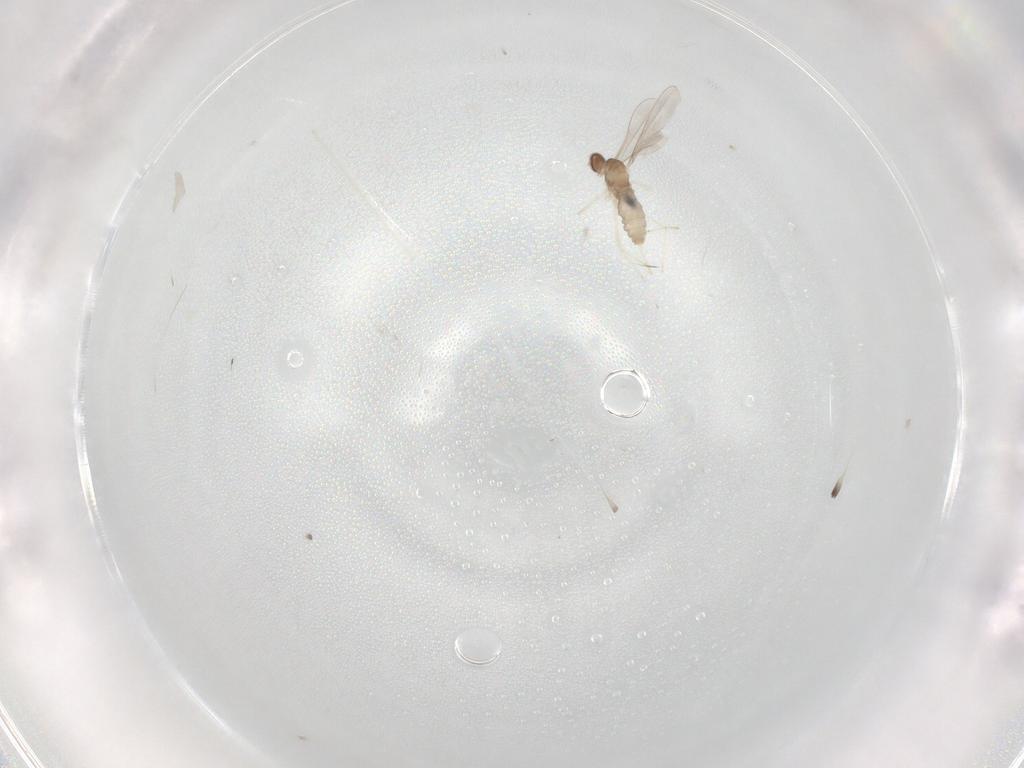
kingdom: Animalia
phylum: Arthropoda
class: Insecta
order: Diptera
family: Cecidomyiidae
